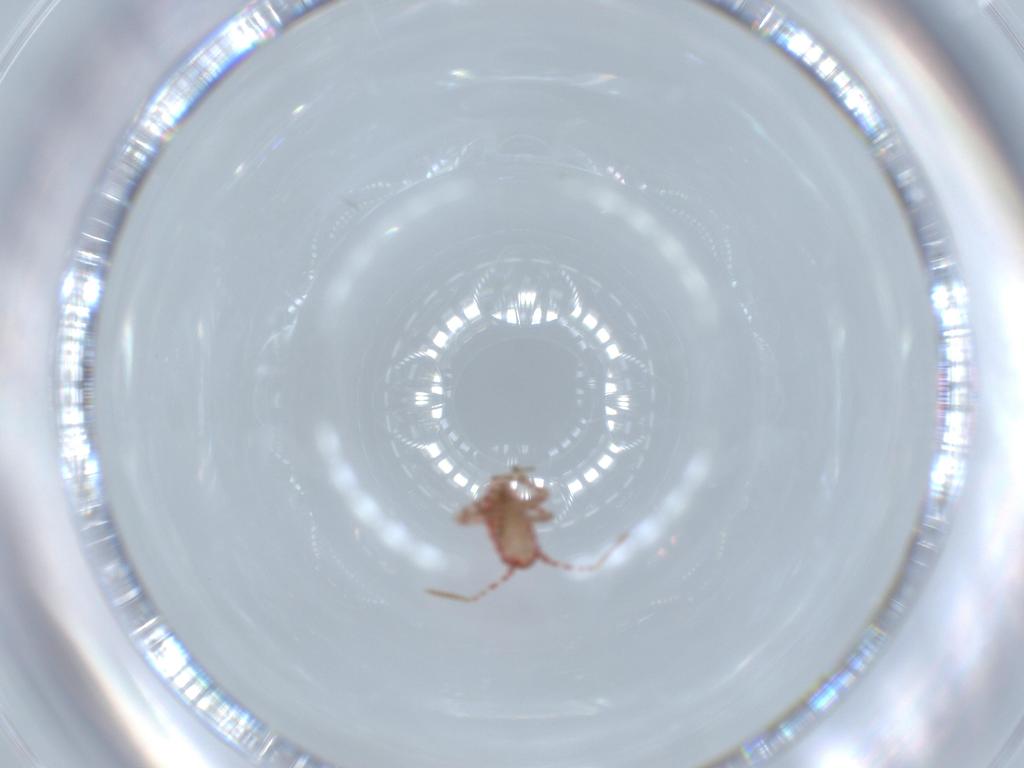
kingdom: Animalia
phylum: Arthropoda
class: Insecta
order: Hemiptera
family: Miridae
